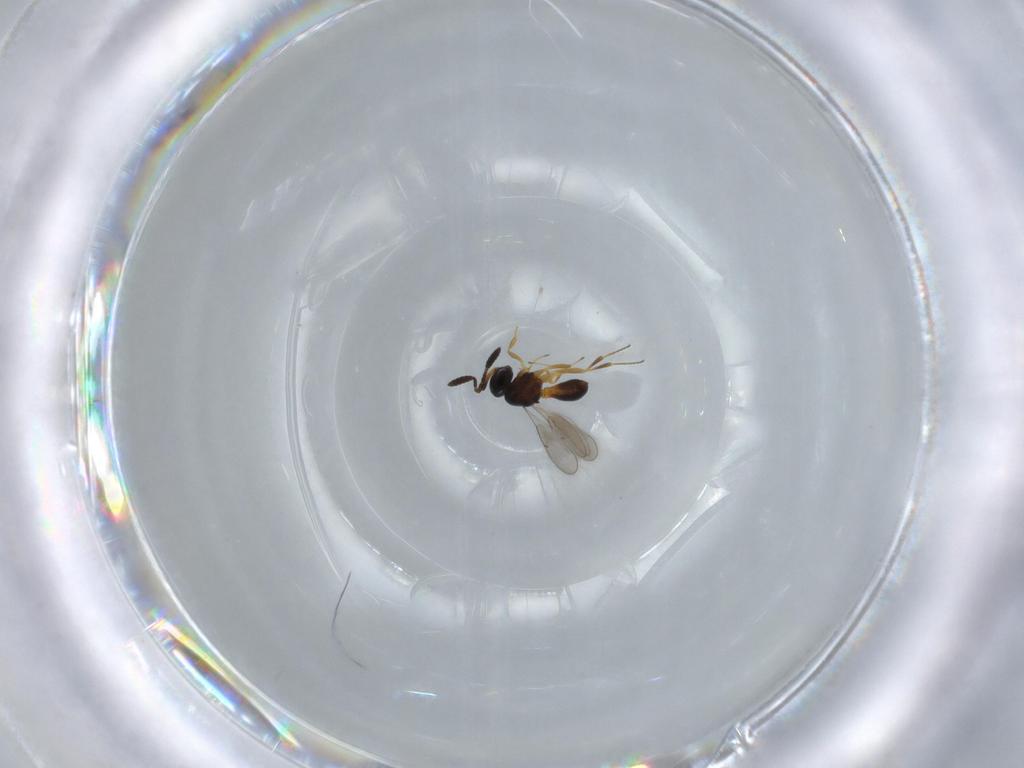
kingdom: Animalia
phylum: Arthropoda
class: Insecta
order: Hymenoptera
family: Scelionidae
